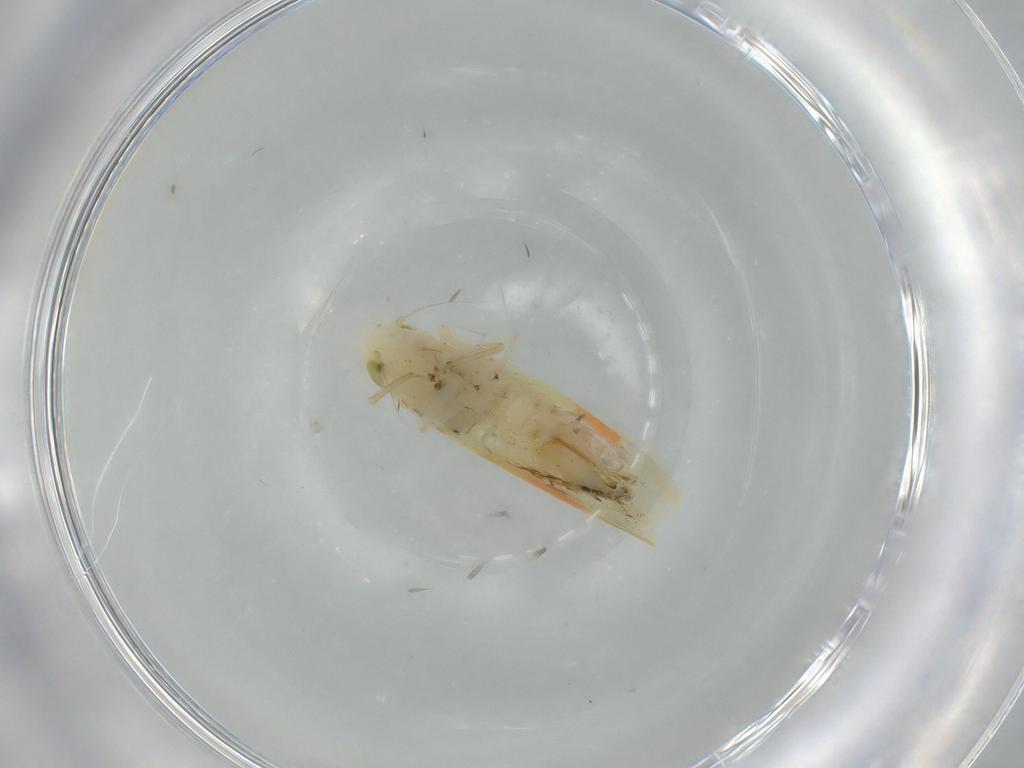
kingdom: Animalia
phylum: Arthropoda
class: Insecta
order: Hemiptera
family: Cicadellidae
